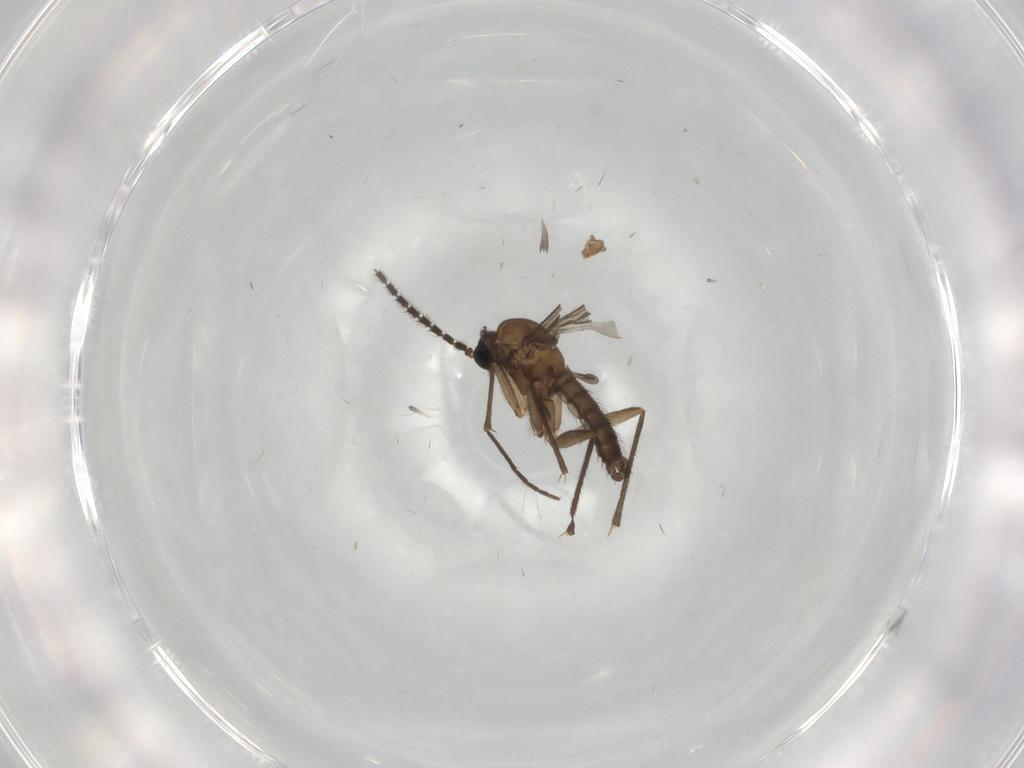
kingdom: Animalia
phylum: Arthropoda
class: Insecta
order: Diptera
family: Sciaridae
